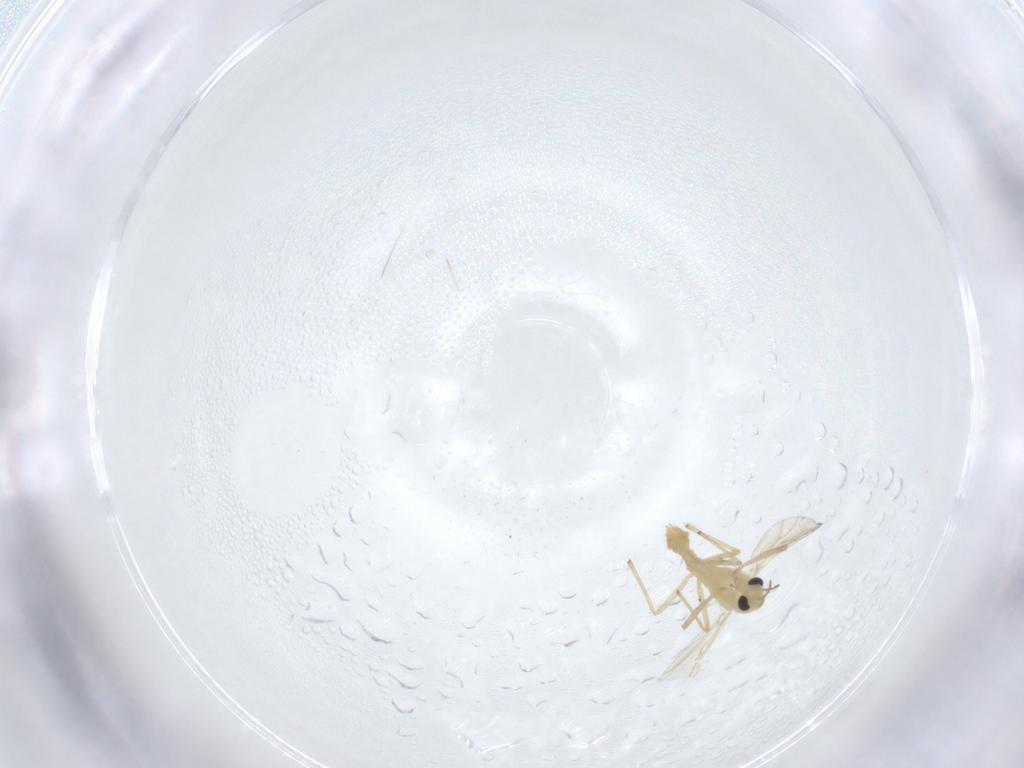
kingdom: Animalia
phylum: Arthropoda
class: Insecta
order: Diptera
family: Chironomidae
